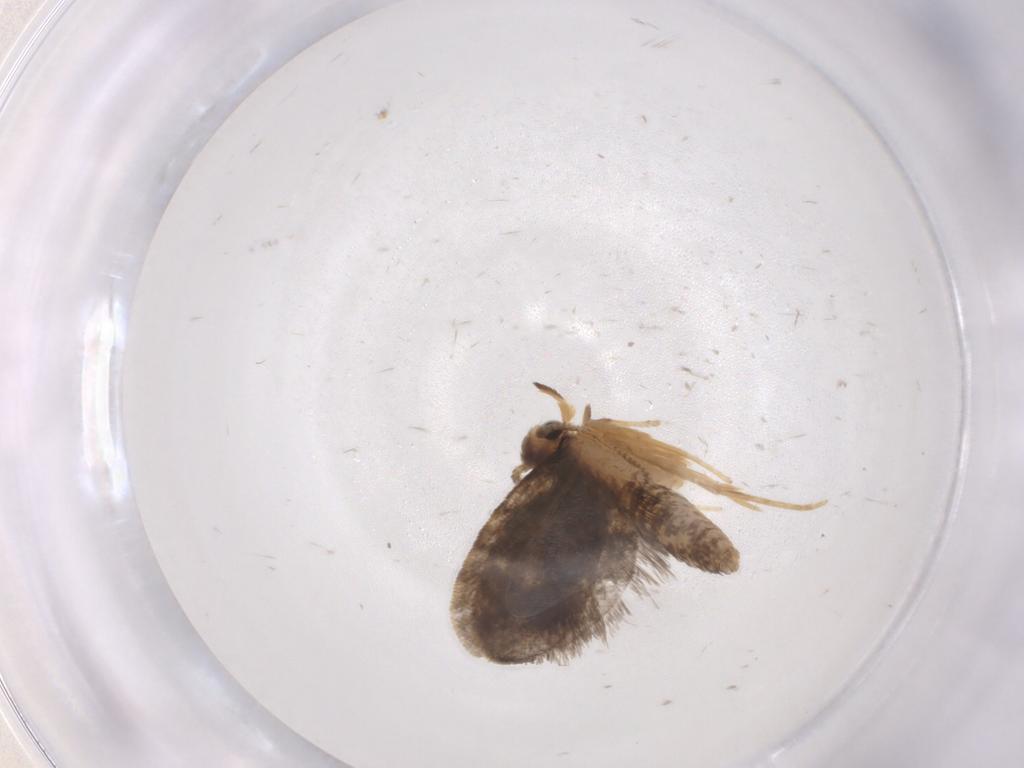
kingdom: Animalia
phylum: Arthropoda
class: Insecta
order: Lepidoptera
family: Psychidae
